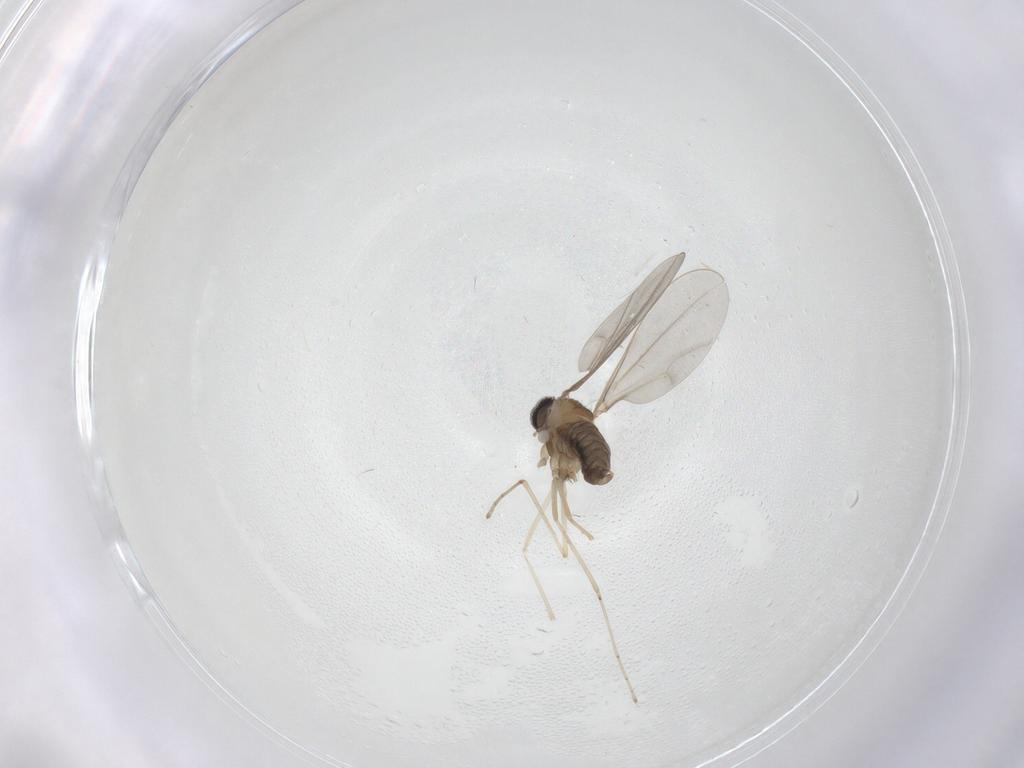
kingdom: Animalia
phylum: Arthropoda
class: Insecta
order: Diptera
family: Cecidomyiidae
